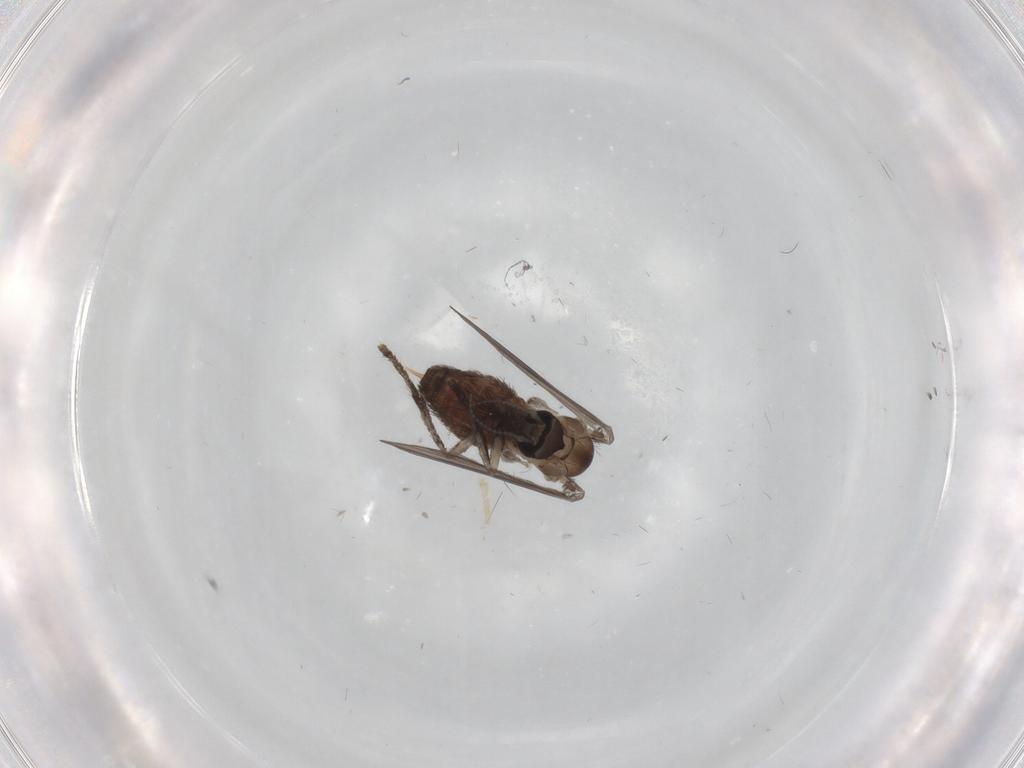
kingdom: Animalia
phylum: Arthropoda
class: Insecta
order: Diptera
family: Psychodidae
